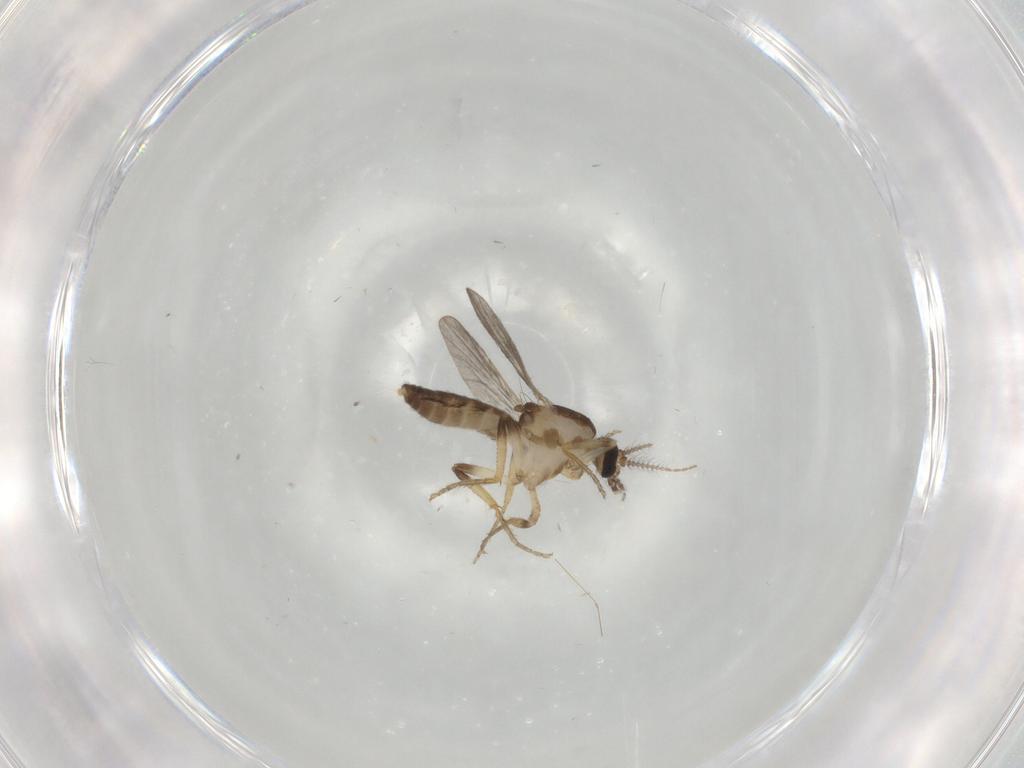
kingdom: Animalia
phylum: Arthropoda
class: Insecta
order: Diptera
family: Ceratopogonidae
